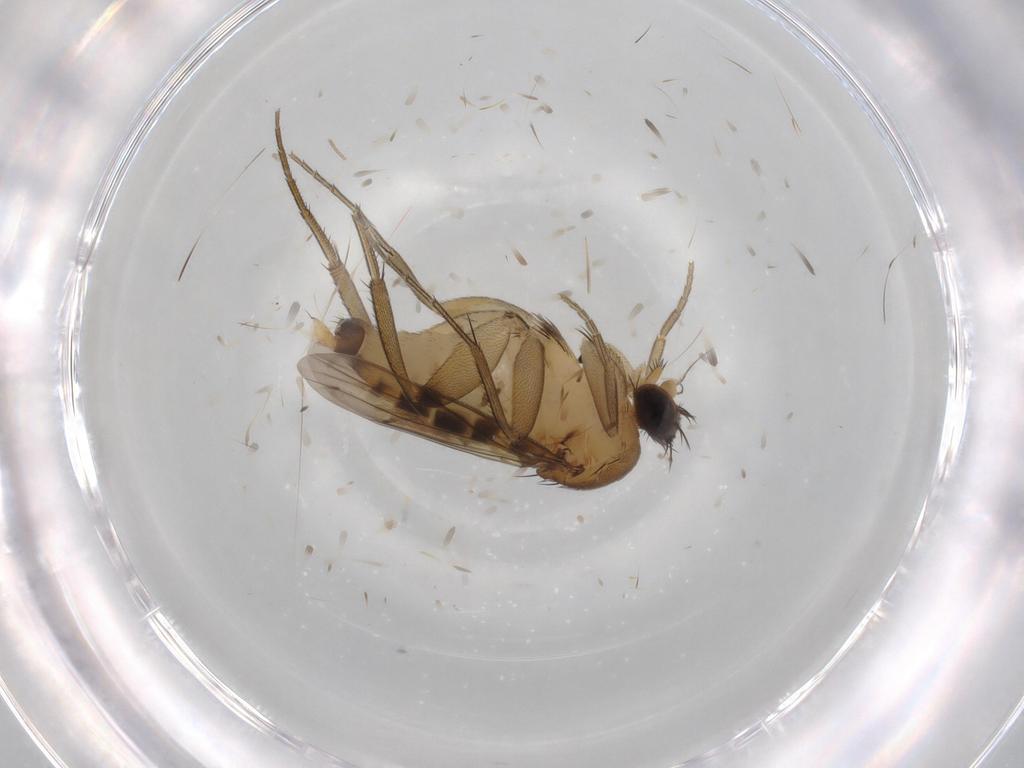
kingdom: Animalia
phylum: Arthropoda
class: Insecta
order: Diptera
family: Phoridae
